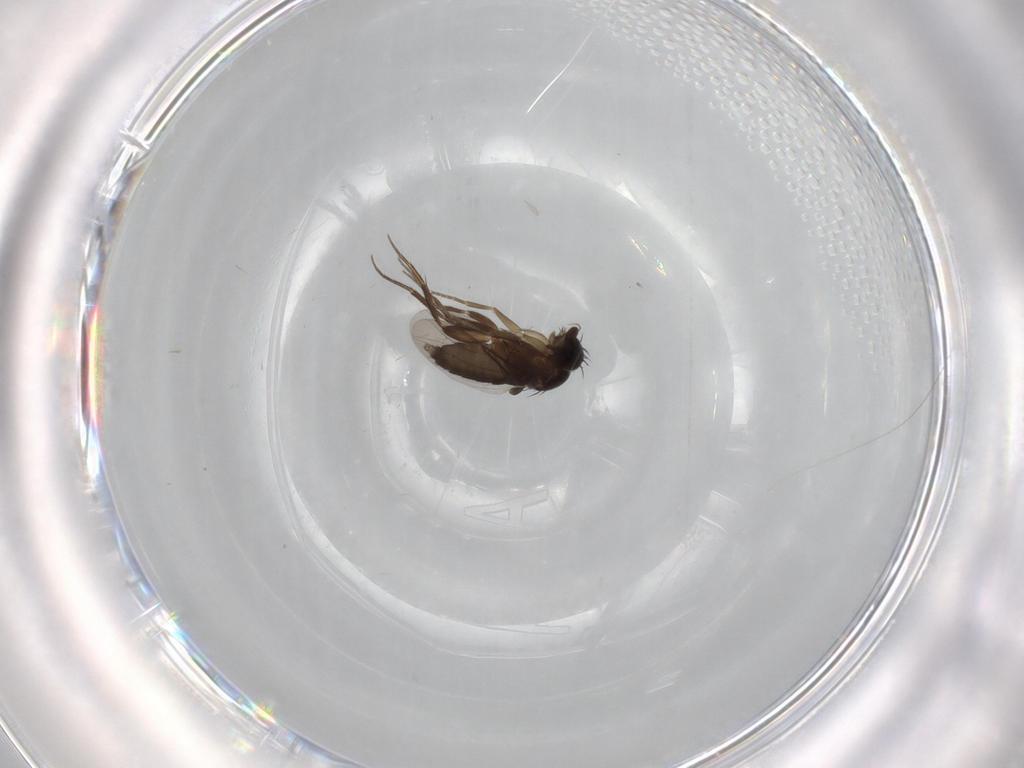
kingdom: Animalia
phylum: Arthropoda
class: Insecta
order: Diptera
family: Phoridae
